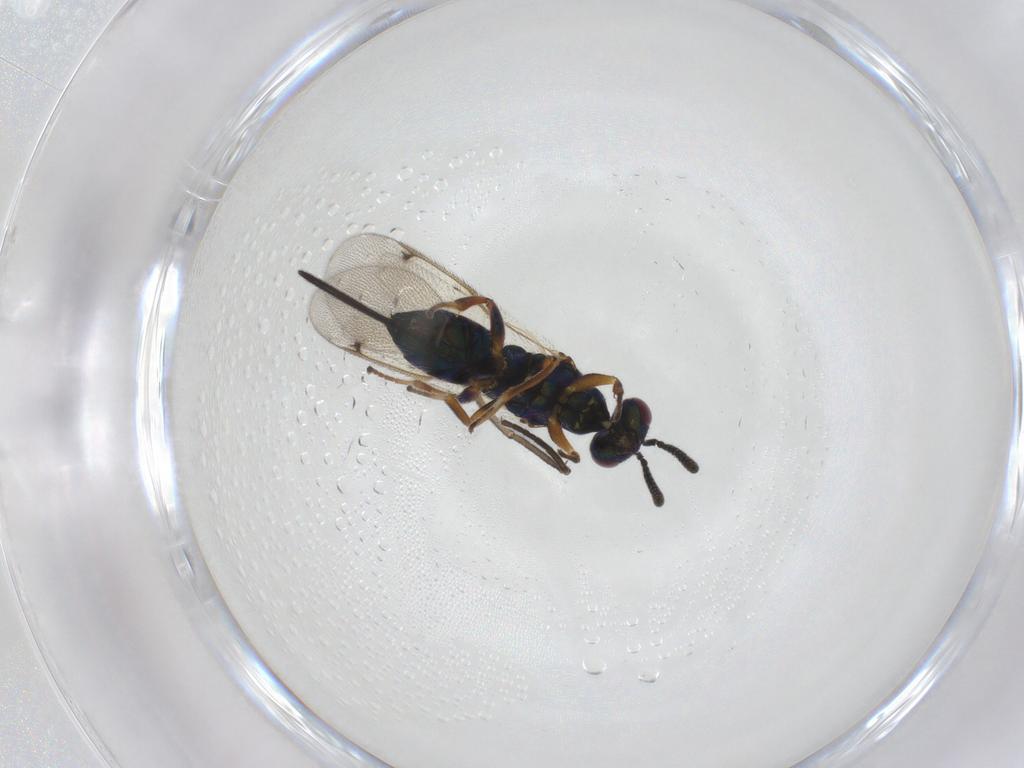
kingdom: Animalia
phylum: Arthropoda
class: Insecta
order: Hymenoptera
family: Torymidae
